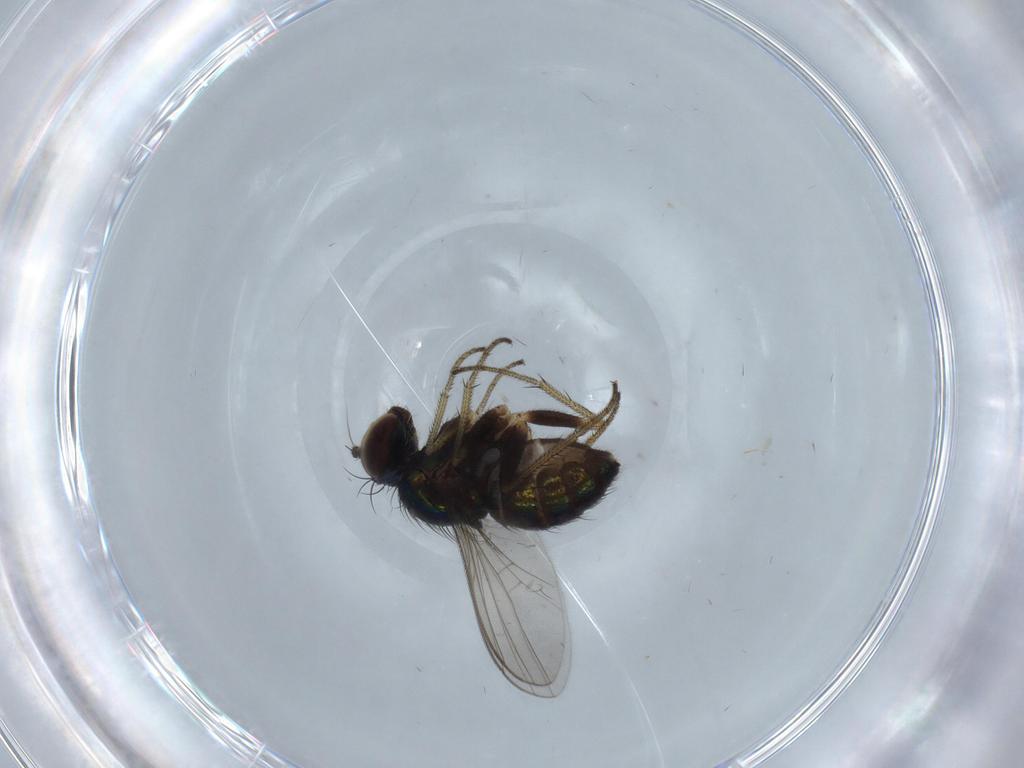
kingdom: Animalia
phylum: Arthropoda
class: Insecta
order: Diptera
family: Dolichopodidae
